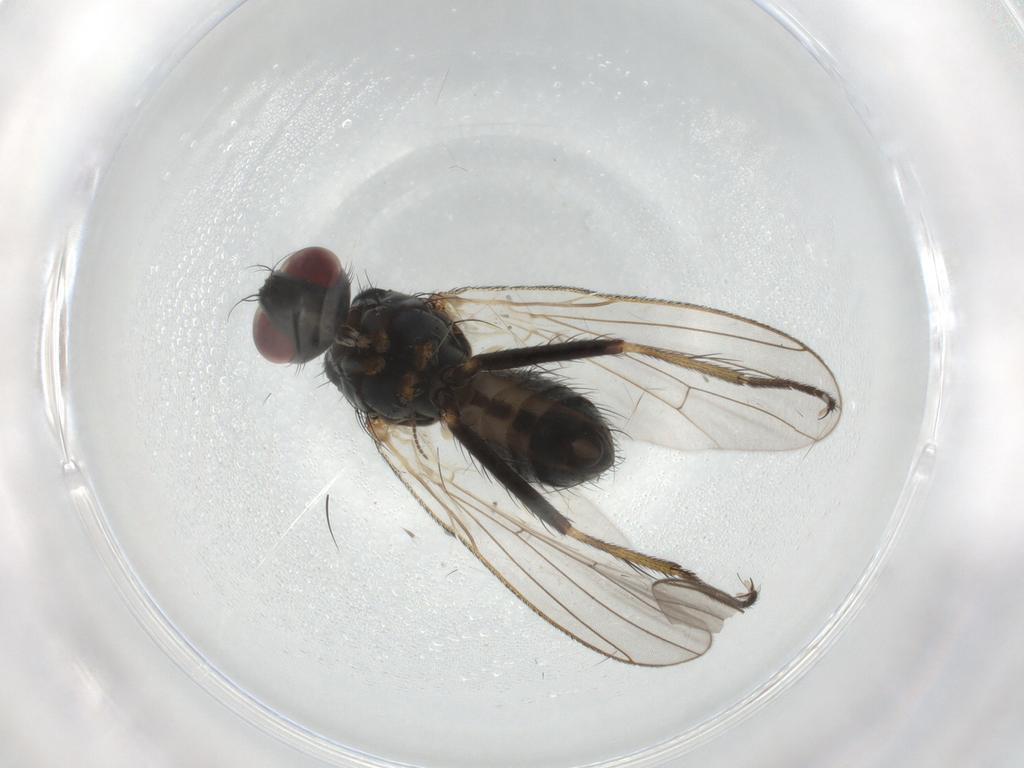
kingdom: Animalia
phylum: Arthropoda
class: Insecta
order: Diptera
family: Muscidae
